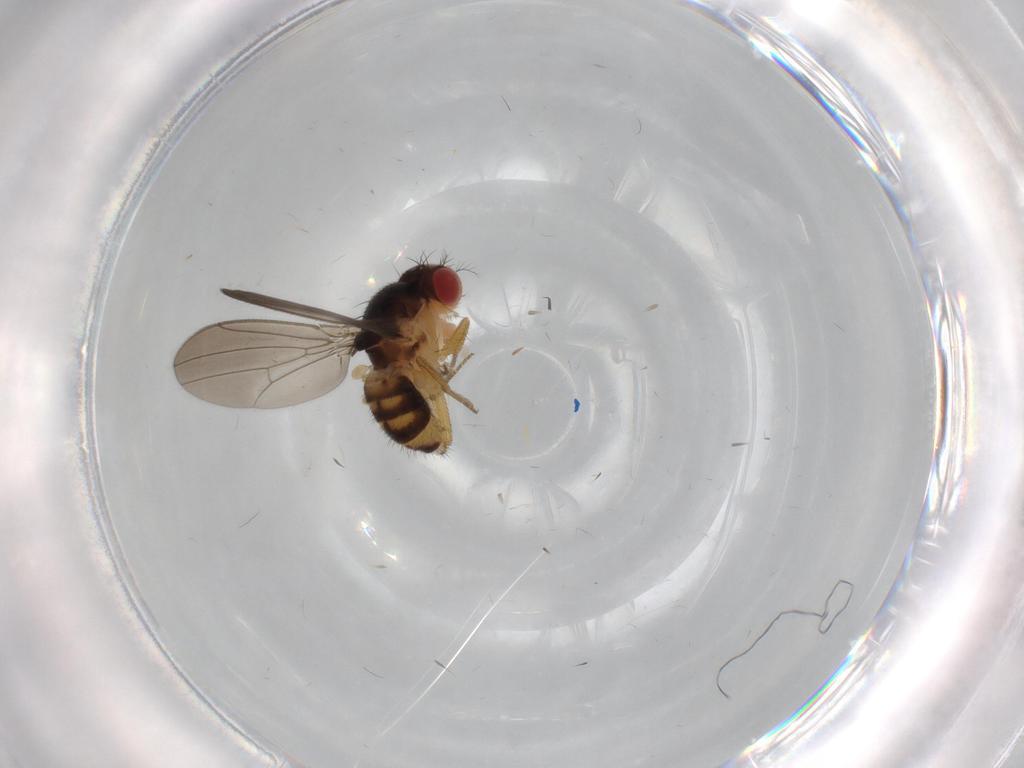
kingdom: Animalia
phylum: Arthropoda
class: Insecta
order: Diptera
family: Drosophilidae
